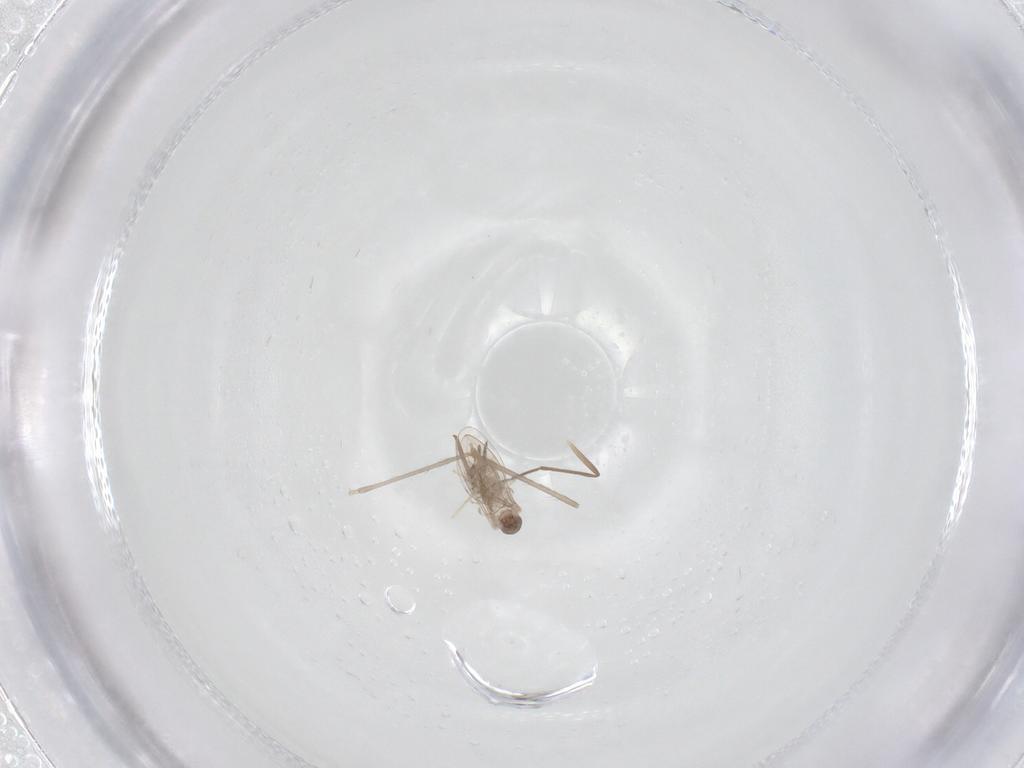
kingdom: Animalia
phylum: Arthropoda
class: Insecta
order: Diptera
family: Cecidomyiidae
